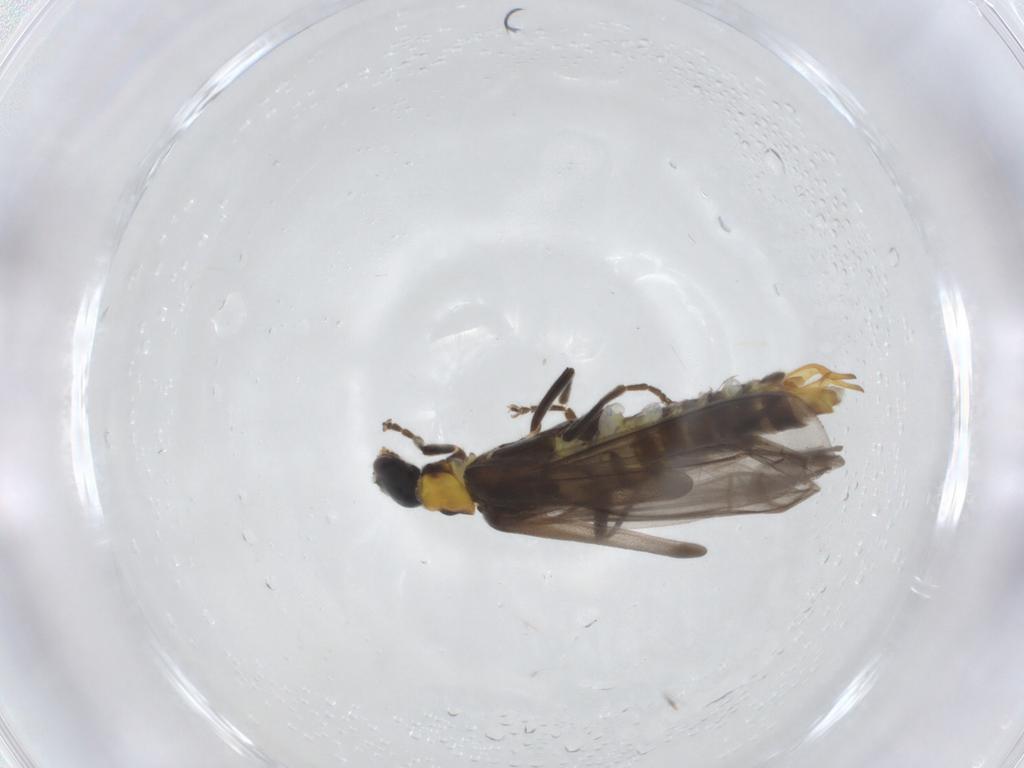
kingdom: Animalia
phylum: Arthropoda
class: Insecta
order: Coleoptera
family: Cantharidae
